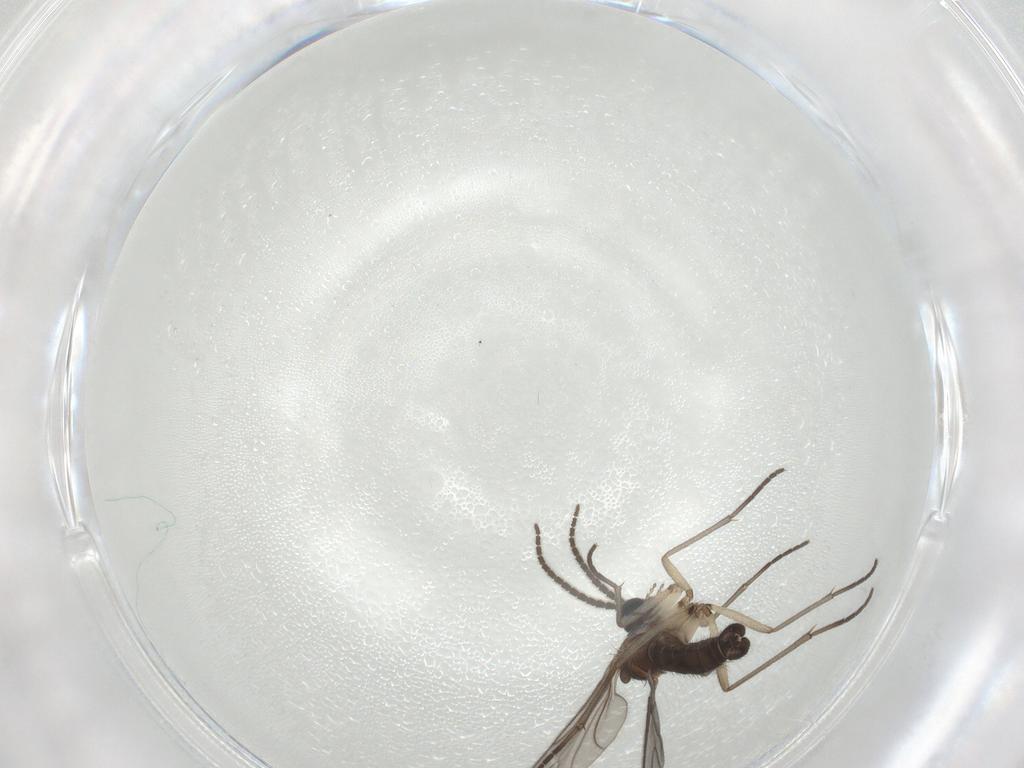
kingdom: Animalia
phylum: Arthropoda
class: Insecta
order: Diptera
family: Sciaridae
